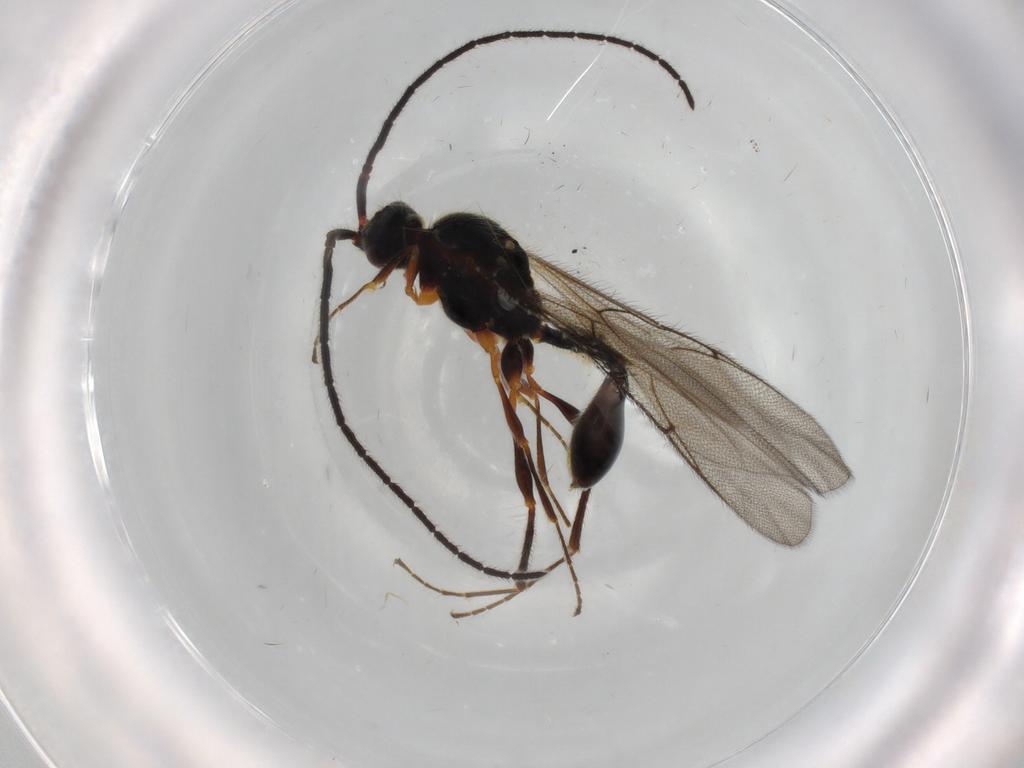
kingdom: Animalia
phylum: Arthropoda
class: Insecta
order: Hymenoptera
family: Diapriidae
